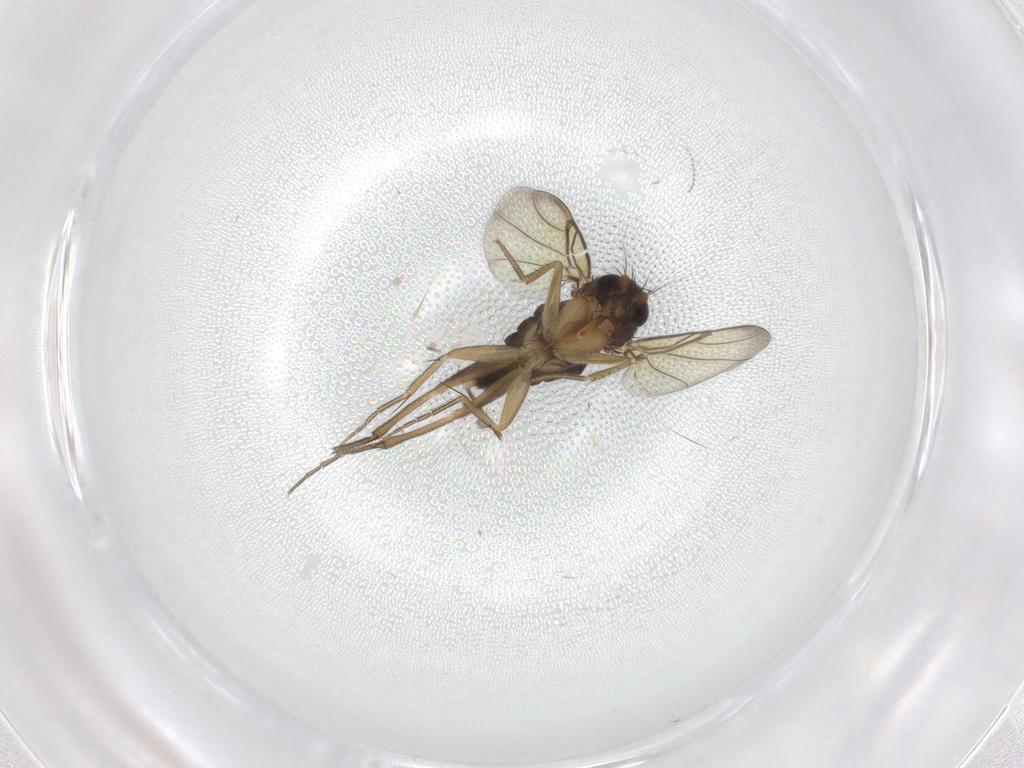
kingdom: Animalia
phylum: Arthropoda
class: Insecta
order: Diptera
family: Phoridae
